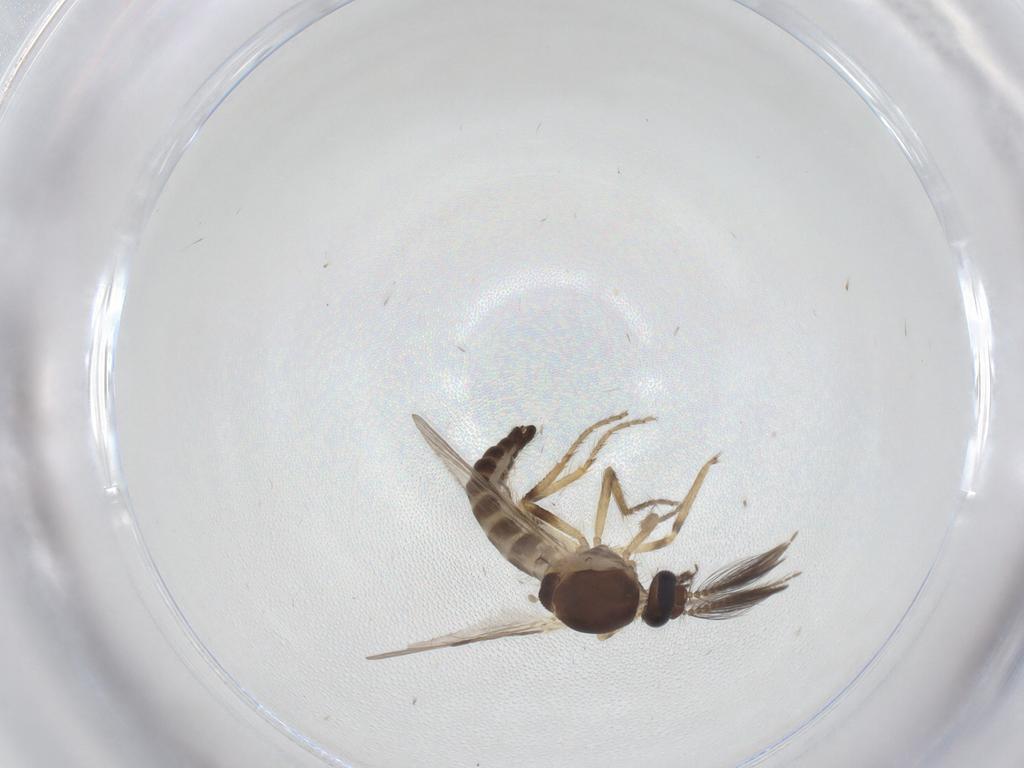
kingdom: Animalia
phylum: Arthropoda
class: Insecta
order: Diptera
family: Ceratopogonidae
